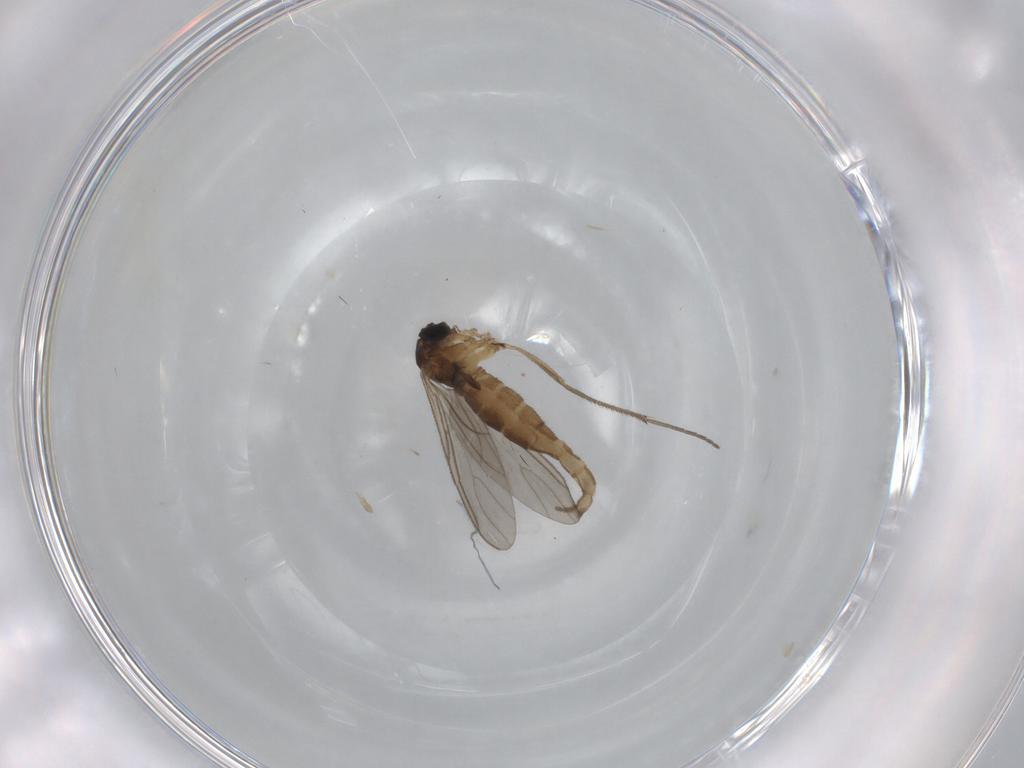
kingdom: Animalia
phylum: Arthropoda
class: Insecta
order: Diptera
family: Sciaridae
